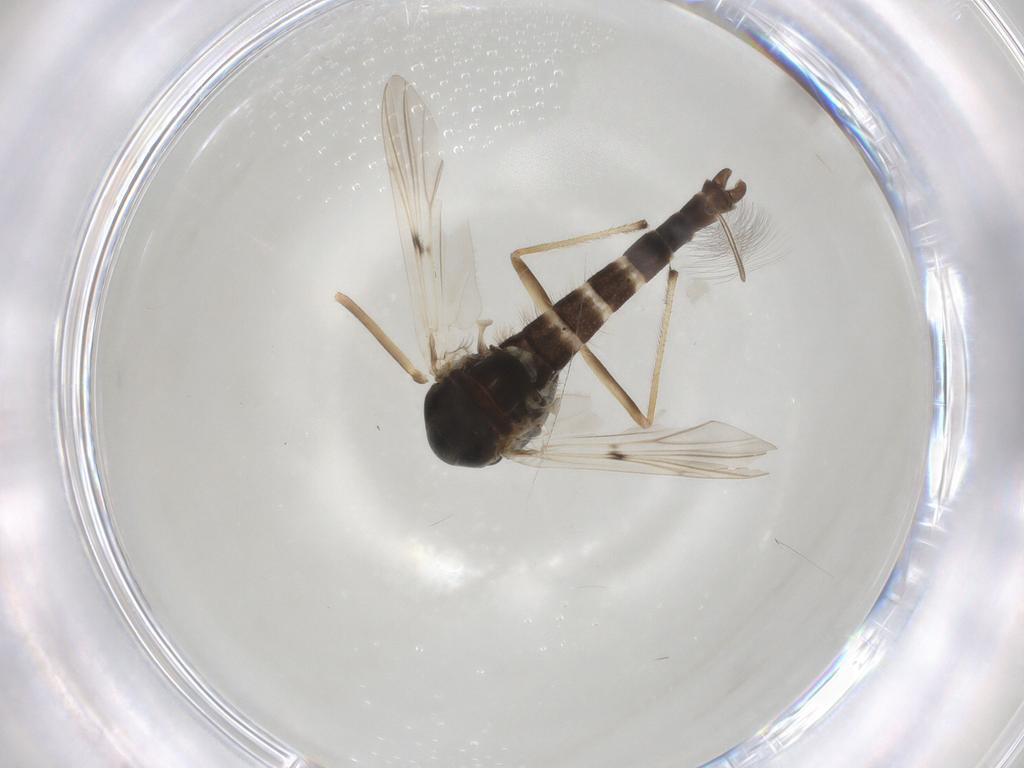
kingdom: Animalia
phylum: Arthropoda
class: Insecta
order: Diptera
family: Chironomidae
